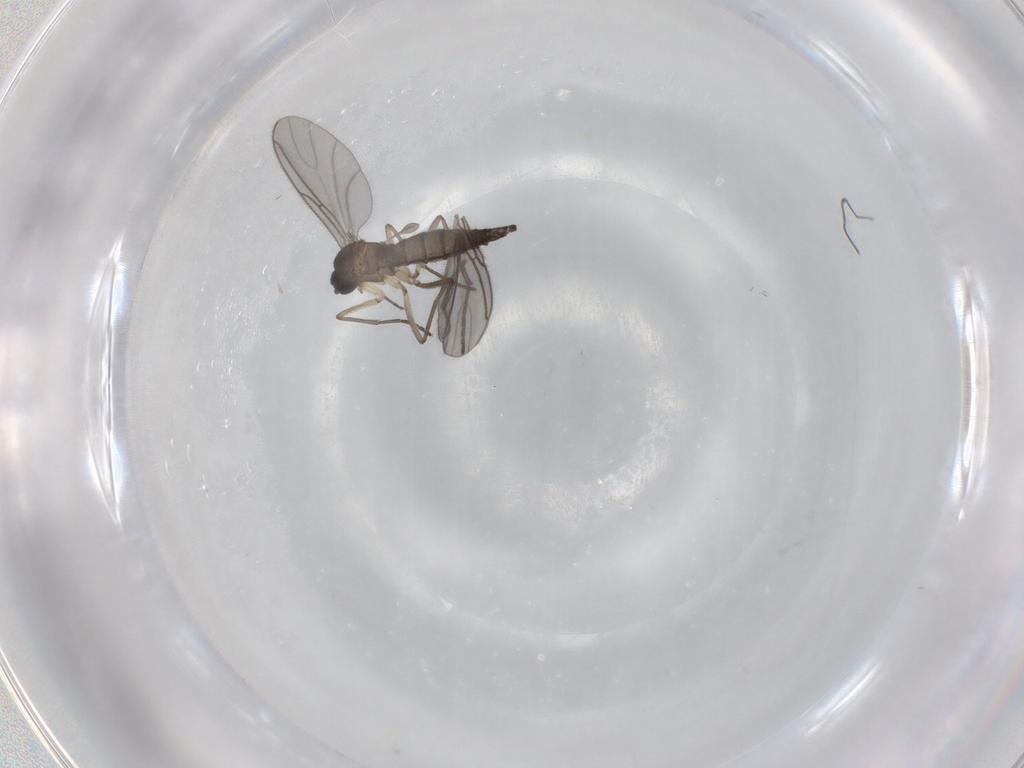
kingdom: Animalia
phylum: Arthropoda
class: Insecta
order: Diptera
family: Sciaridae
